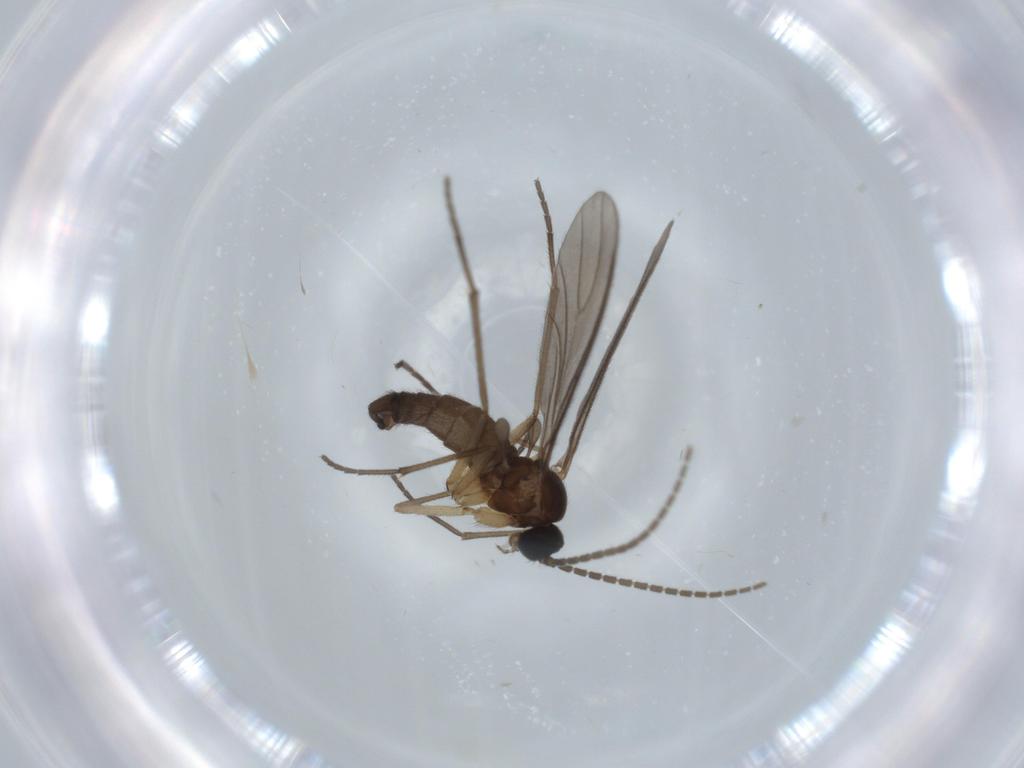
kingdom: Animalia
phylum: Arthropoda
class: Insecta
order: Diptera
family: Sciaridae
